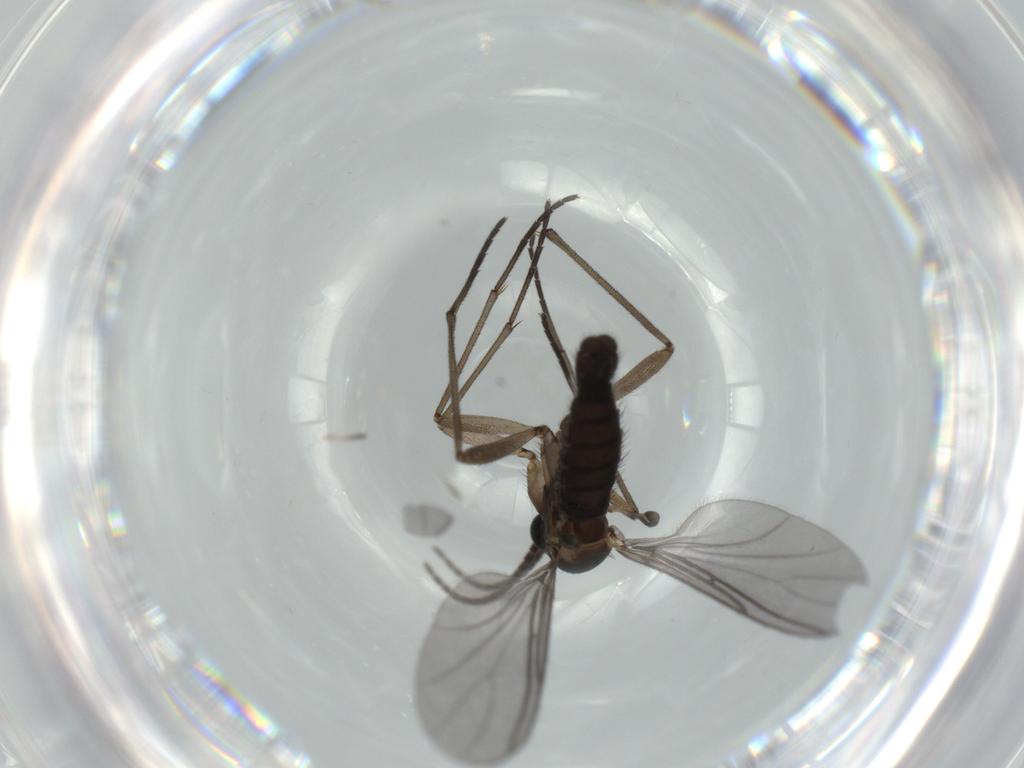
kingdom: Animalia
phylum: Arthropoda
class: Insecta
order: Diptera
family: Sciaridae
